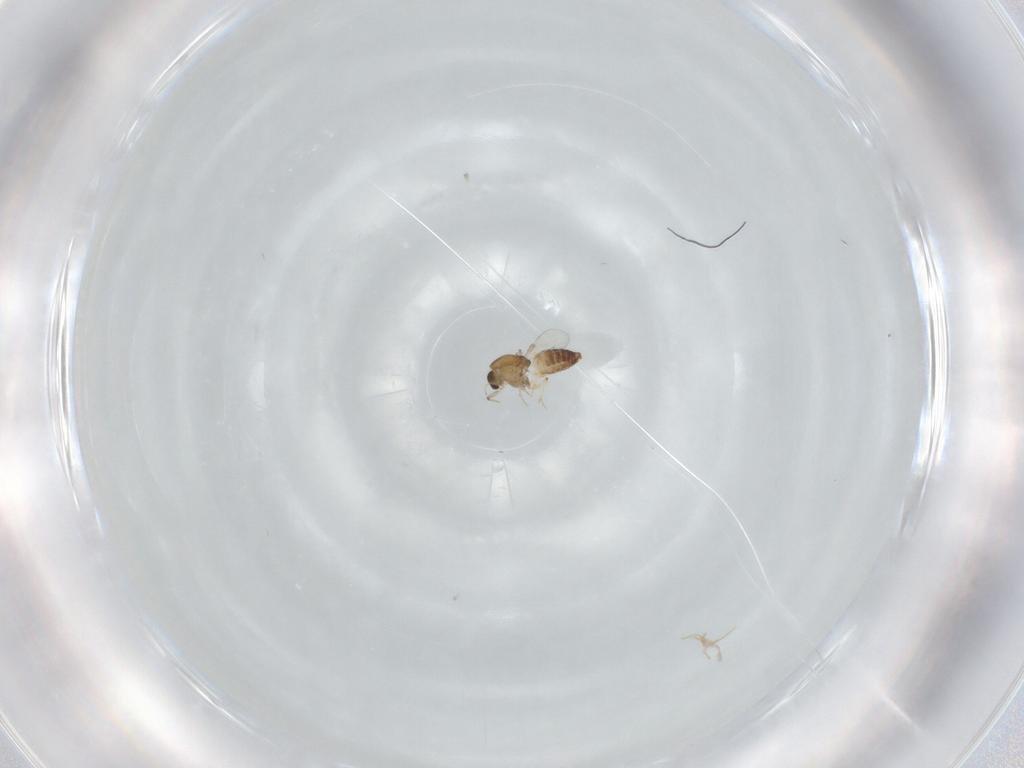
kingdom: Animalia
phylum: Arthropoda
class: Insecta
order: Diptera
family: Chironomidae
